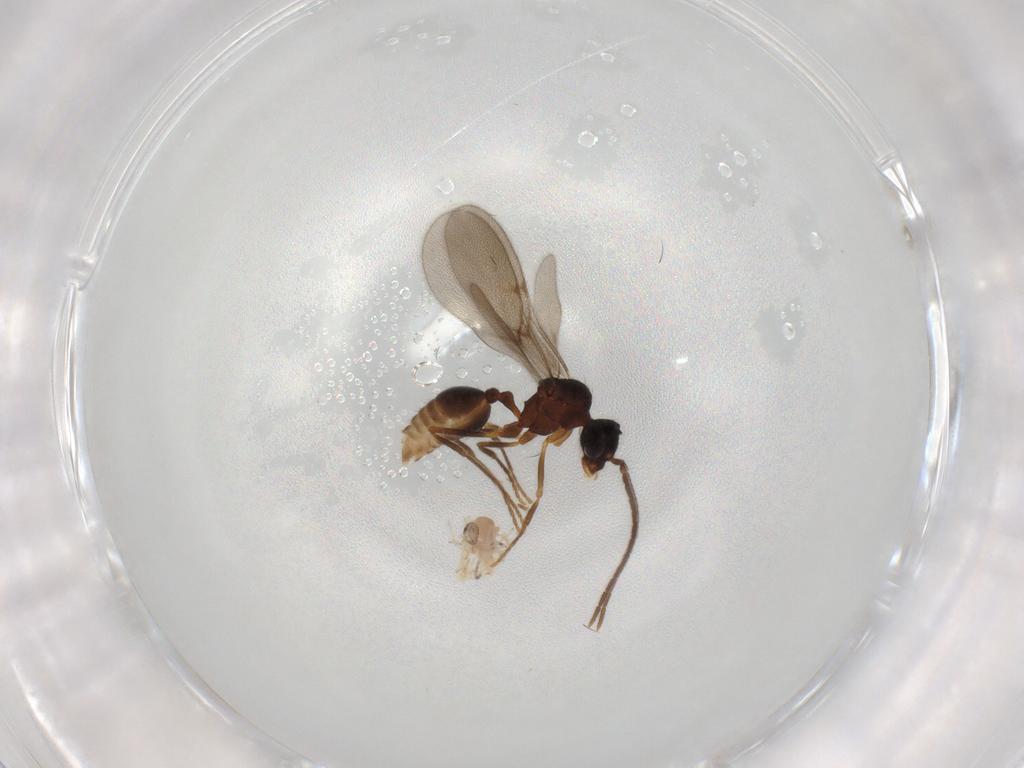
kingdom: Animalia
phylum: Arthropoda
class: Insecta
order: Hymenoptera
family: Formicidae
